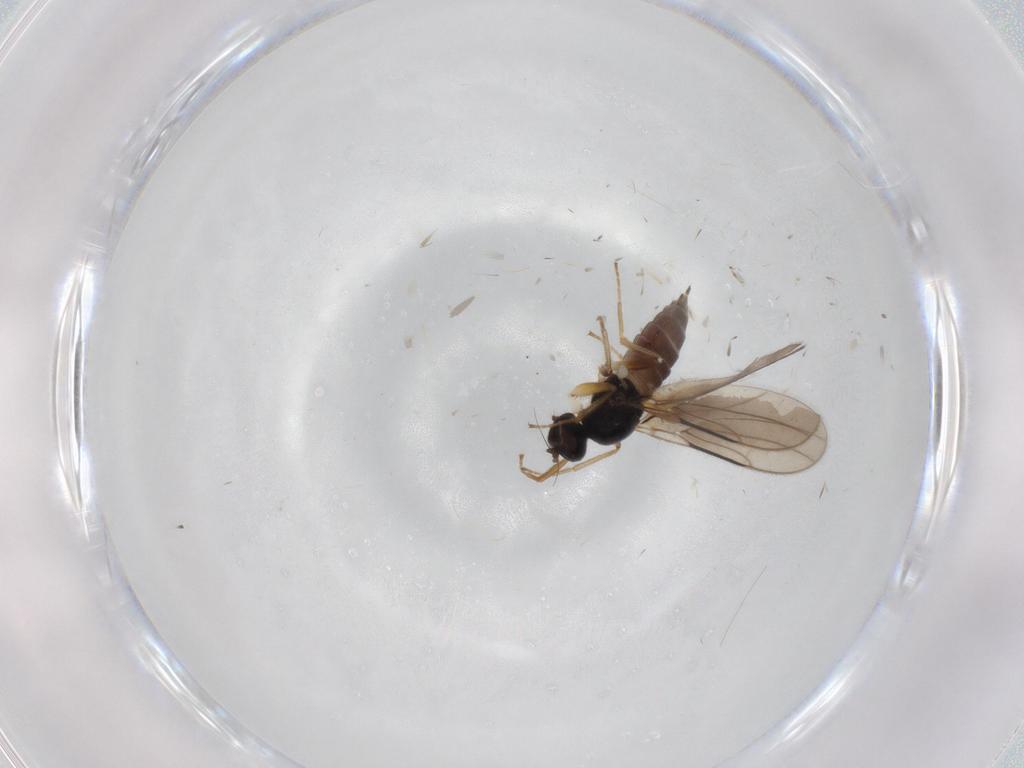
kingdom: Animalia
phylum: Arthropoda
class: Insecta
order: Diptera
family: Hybotidae
